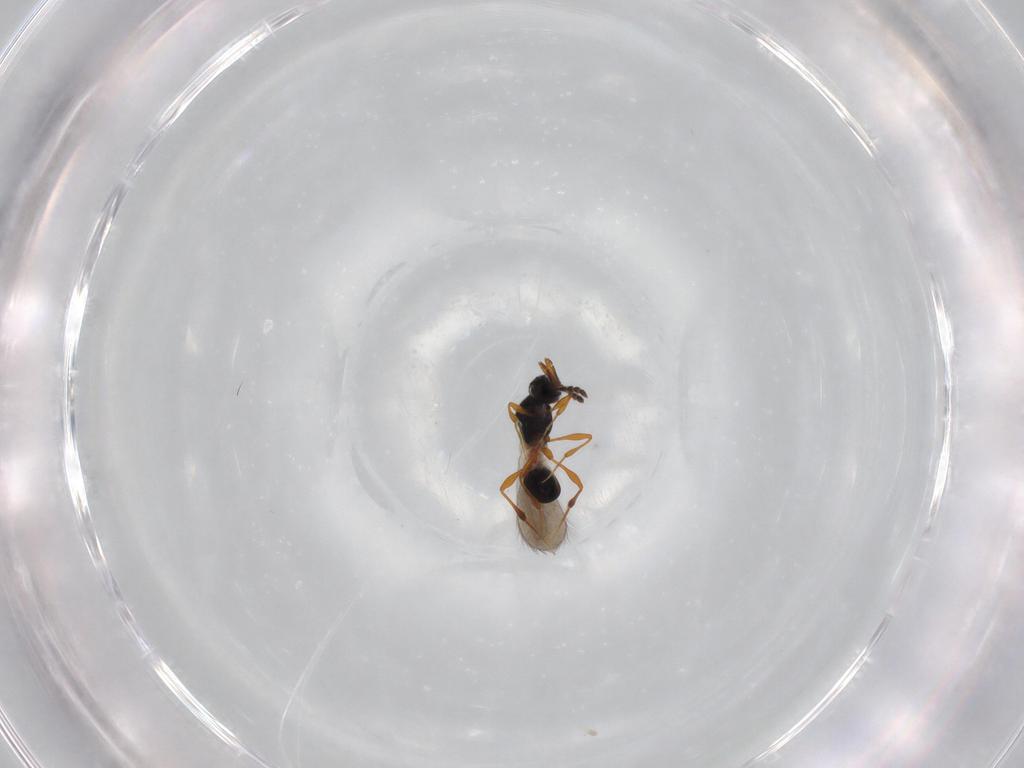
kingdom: Animalia
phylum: Arthropoda
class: Insecta
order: Hymenoptera
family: Platygastridae
